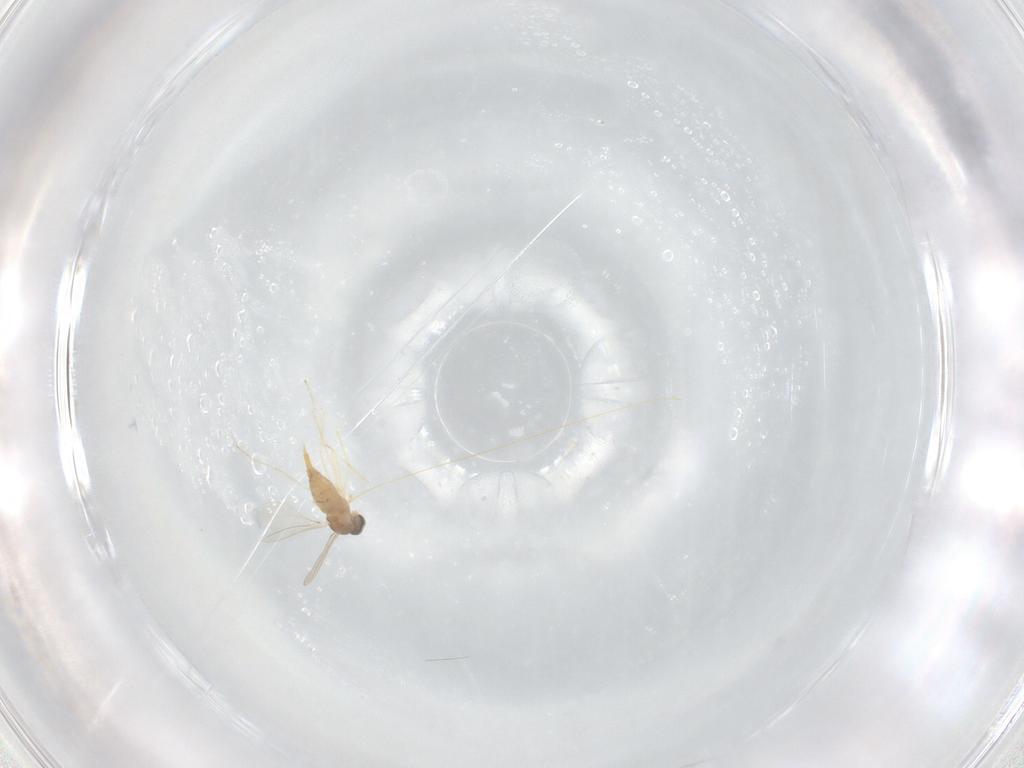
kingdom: Animalia
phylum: Arthropoda
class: Insecta
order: Diptera
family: Cecidomyiidae
